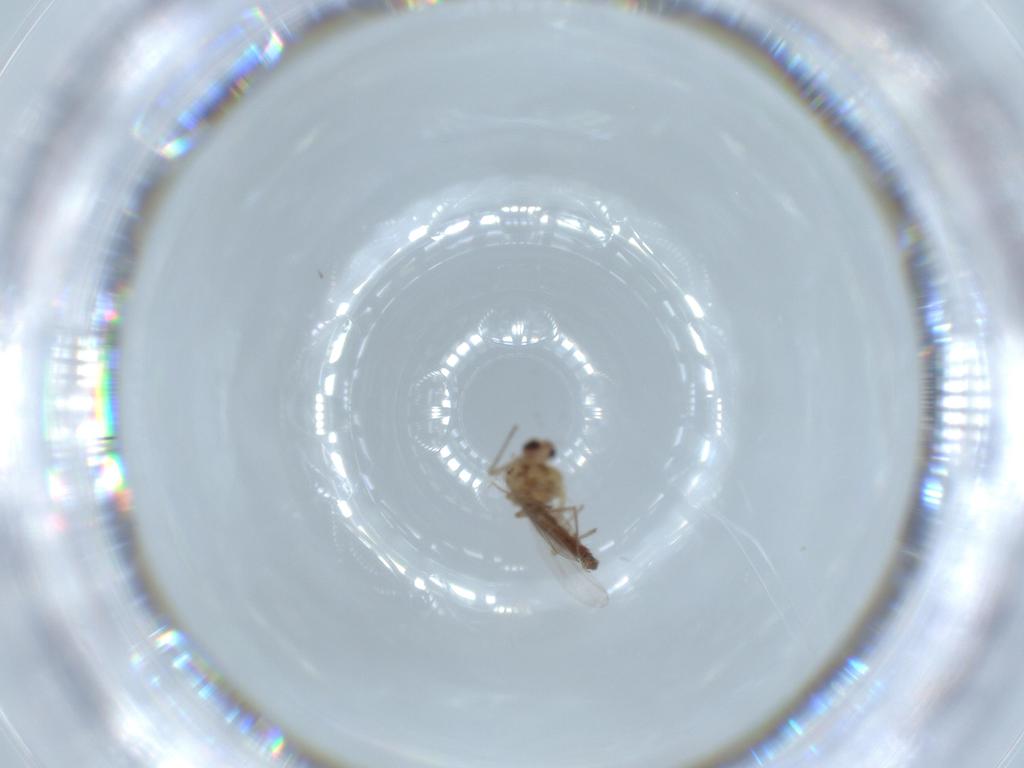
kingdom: Animalia
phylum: Arthropoda
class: Insecta
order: Diptera
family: Chironomidae
